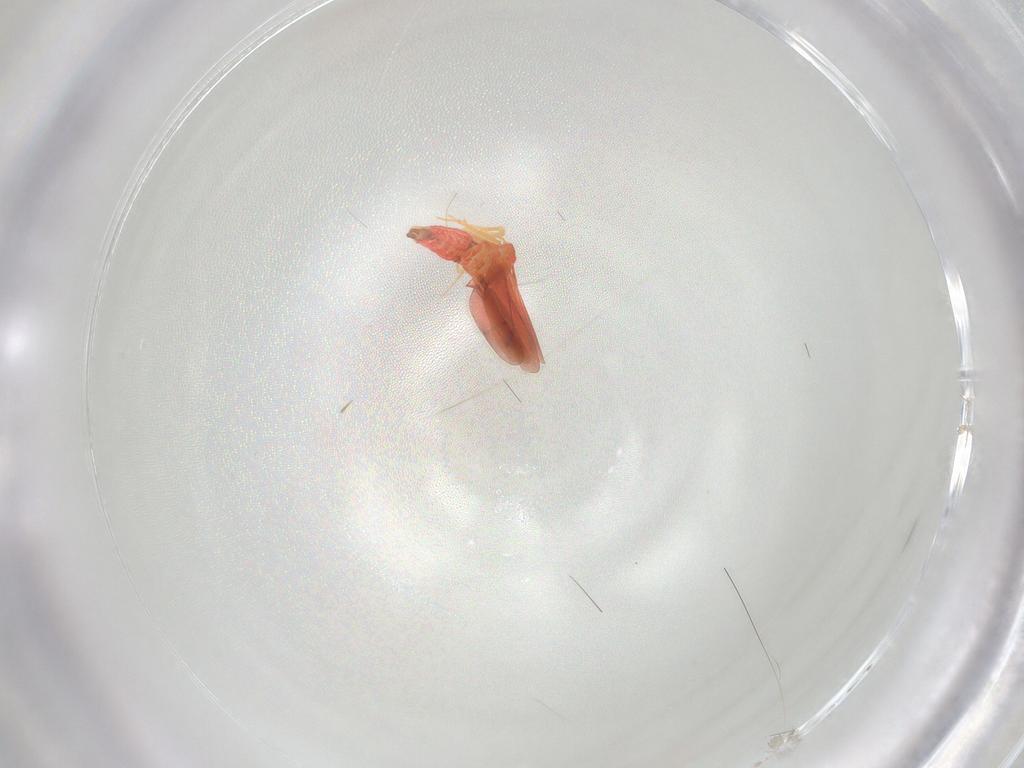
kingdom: Animalia
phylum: Arthropoda
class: Insecta
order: Hemiptera
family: Aleyrodidae
